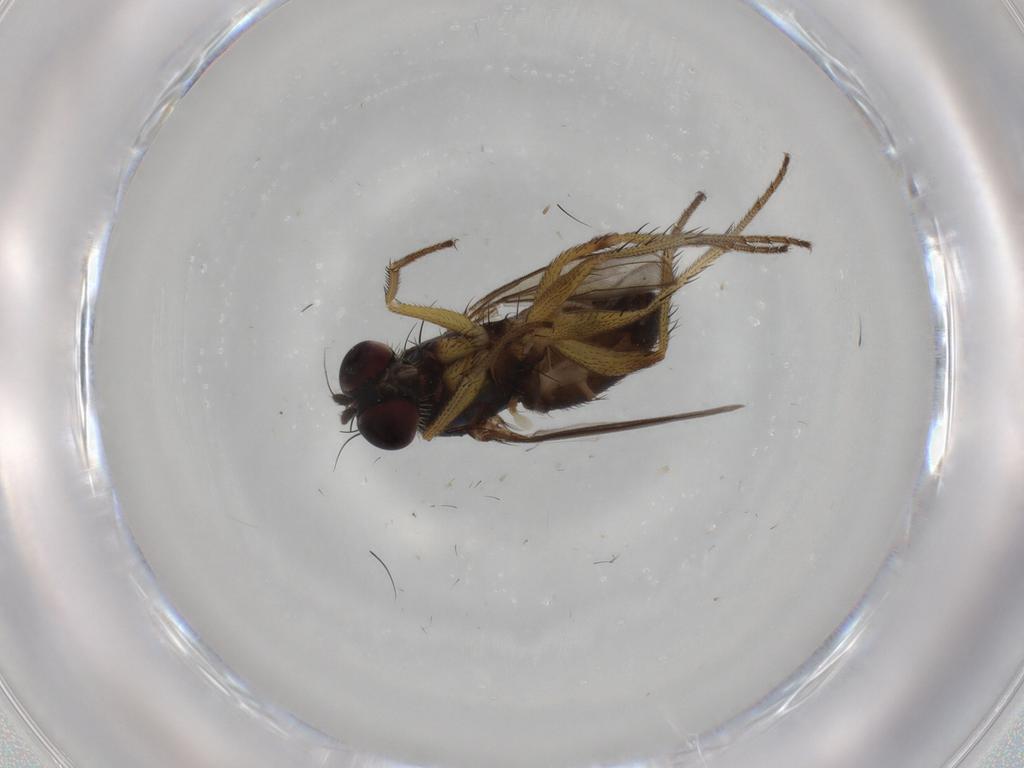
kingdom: Animalia
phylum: Arthropoda
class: Insecta
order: Diptera
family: Dolichopodidae
